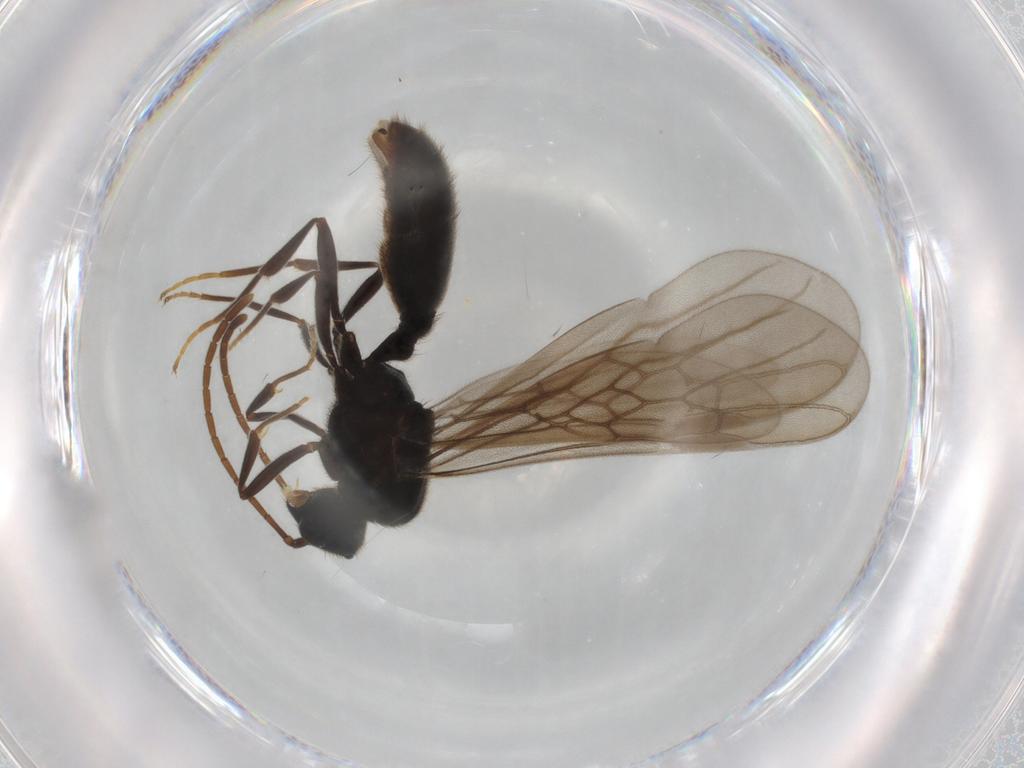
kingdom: Animalia
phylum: Arthropoda
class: Insecta
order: Hymenoptera
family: Formicidae
